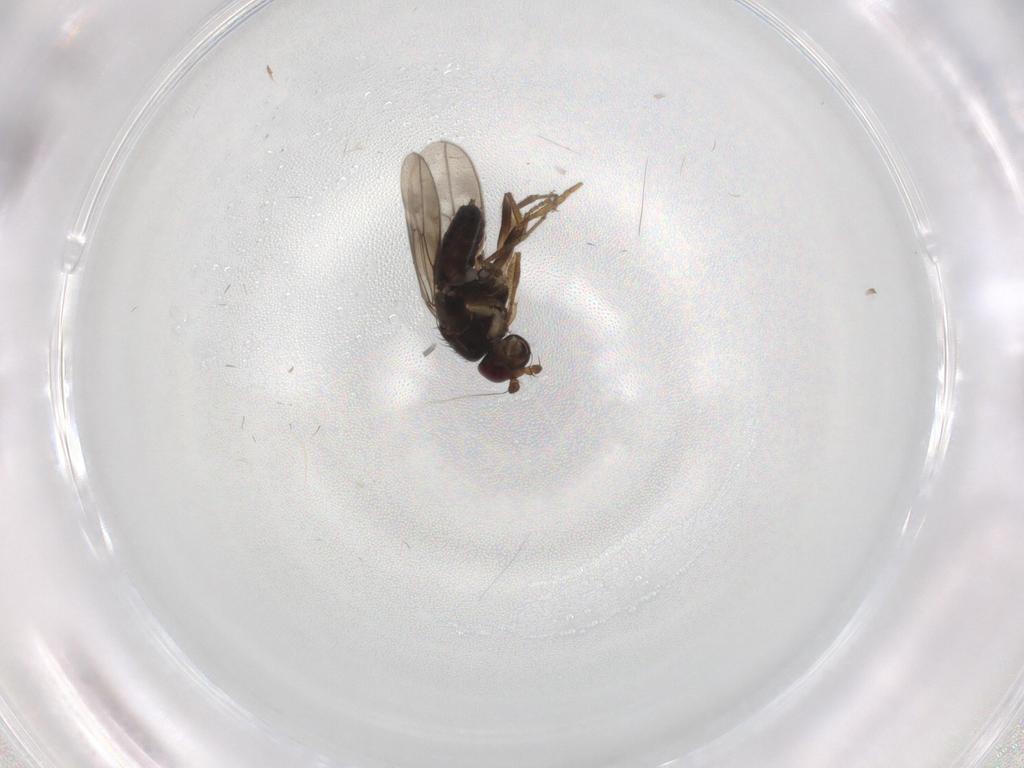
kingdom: Animalia
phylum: Arthropoda
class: Insecta
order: Diptera
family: Sphaeroceridae
